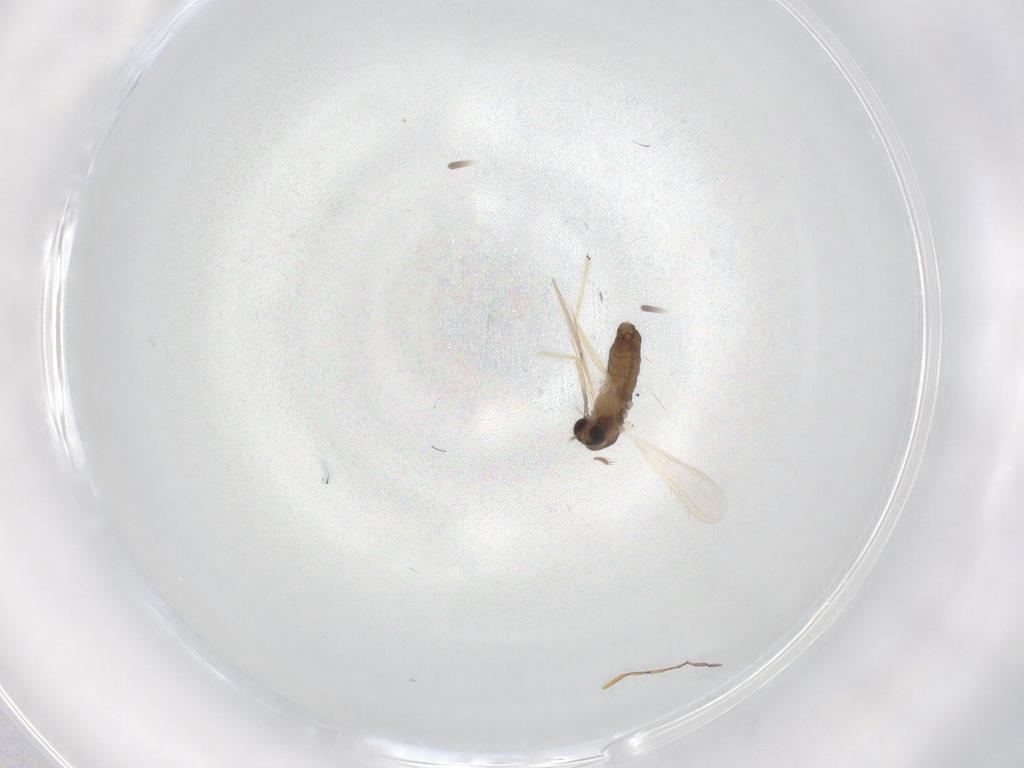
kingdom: Animalia
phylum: Arthropoda
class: Insecta
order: Diptera
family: Chironomidae
